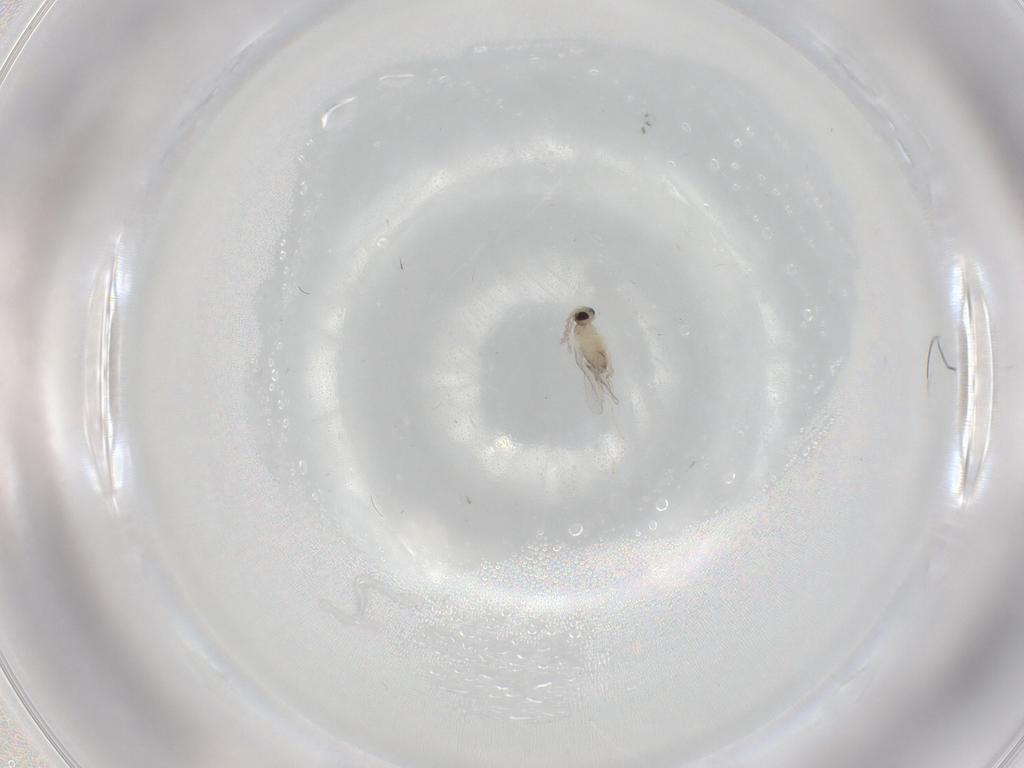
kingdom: Animalia
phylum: Arthropoda
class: Insecta
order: Diptera
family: Cecidomyiidae
